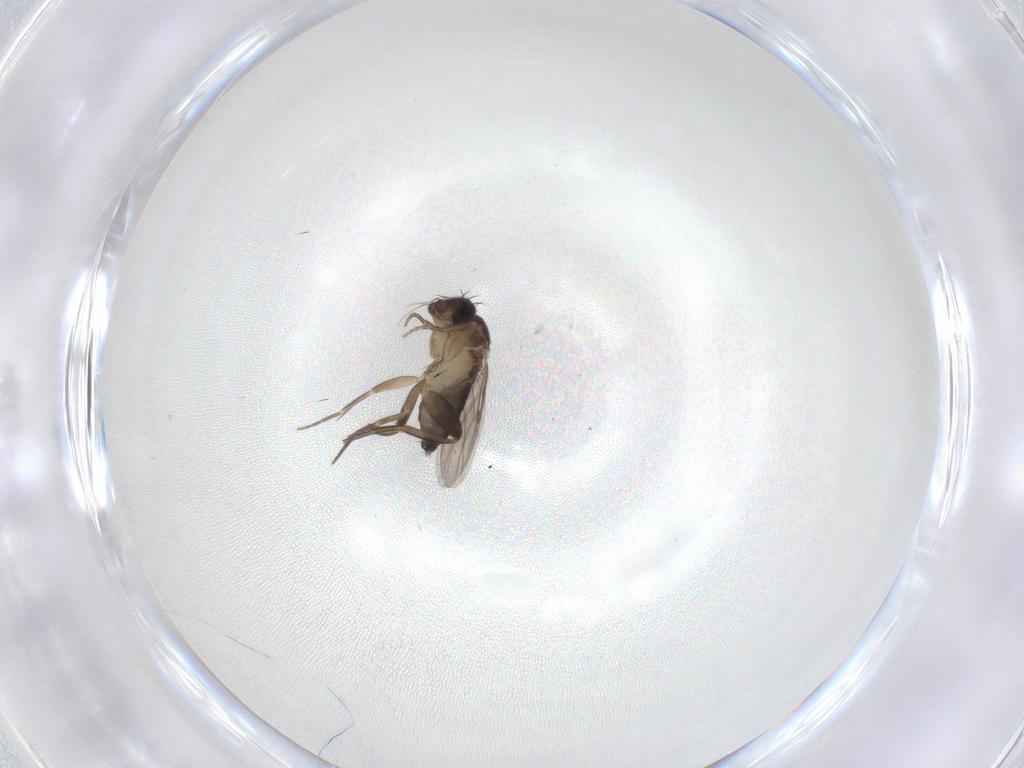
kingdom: Animalia
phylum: Arthropoda
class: Insecta
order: Diptera
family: Phoridae
